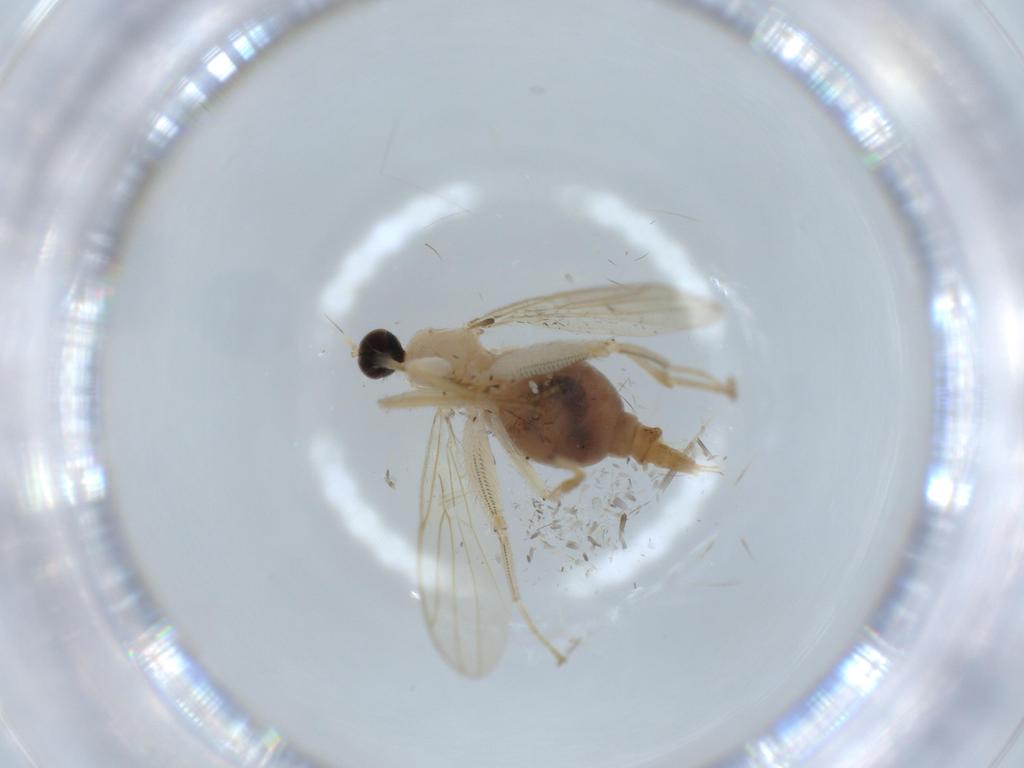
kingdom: Animalia
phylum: Arthropoda
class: Insecta
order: Diptera
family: Hybotidae
